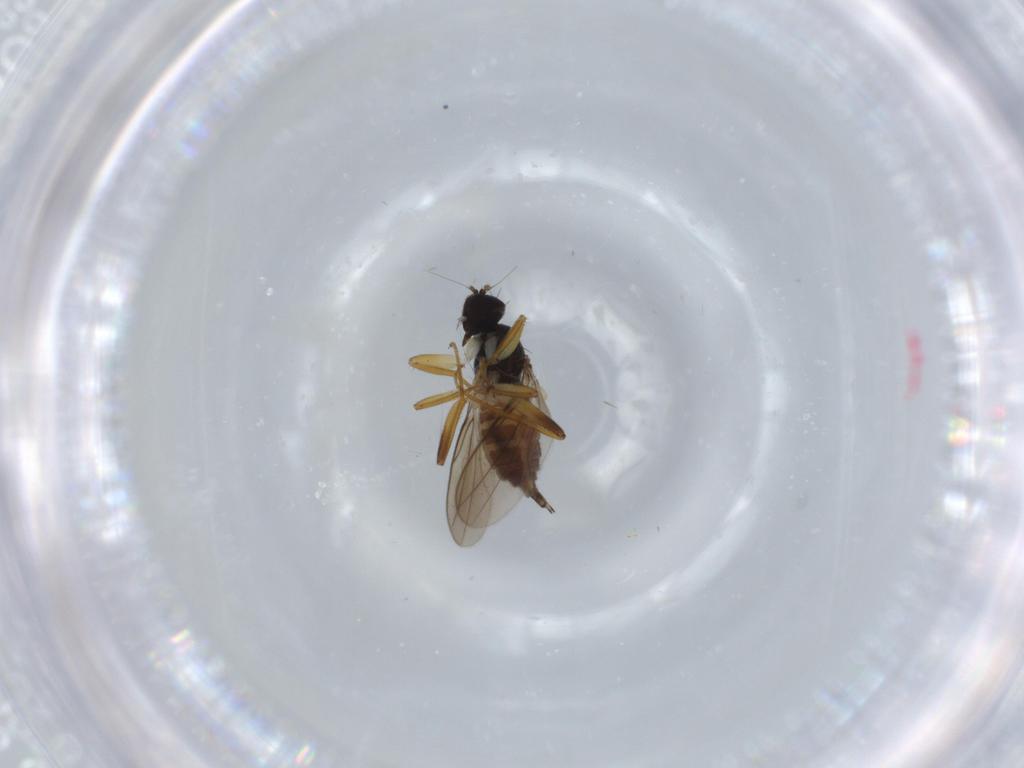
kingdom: Animalia
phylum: Arthropoda
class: Insecta
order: Diptera
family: Hybotidae
